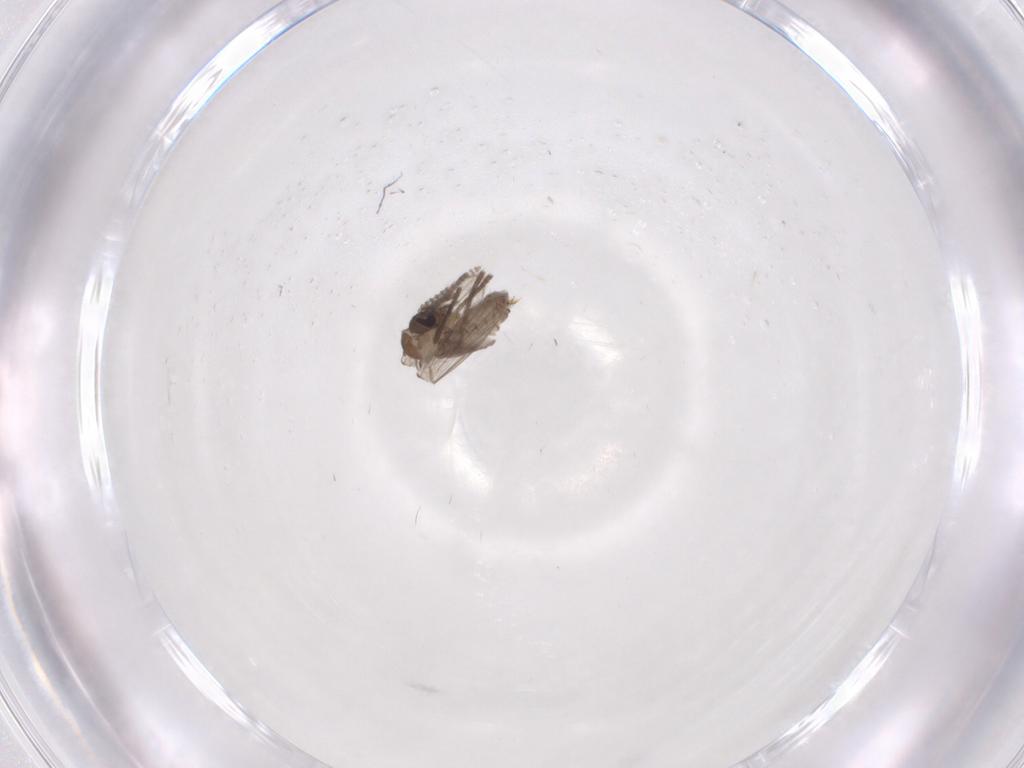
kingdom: Animalia
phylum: Arthropoda
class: Insecta
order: Diptera
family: Psychodidae
